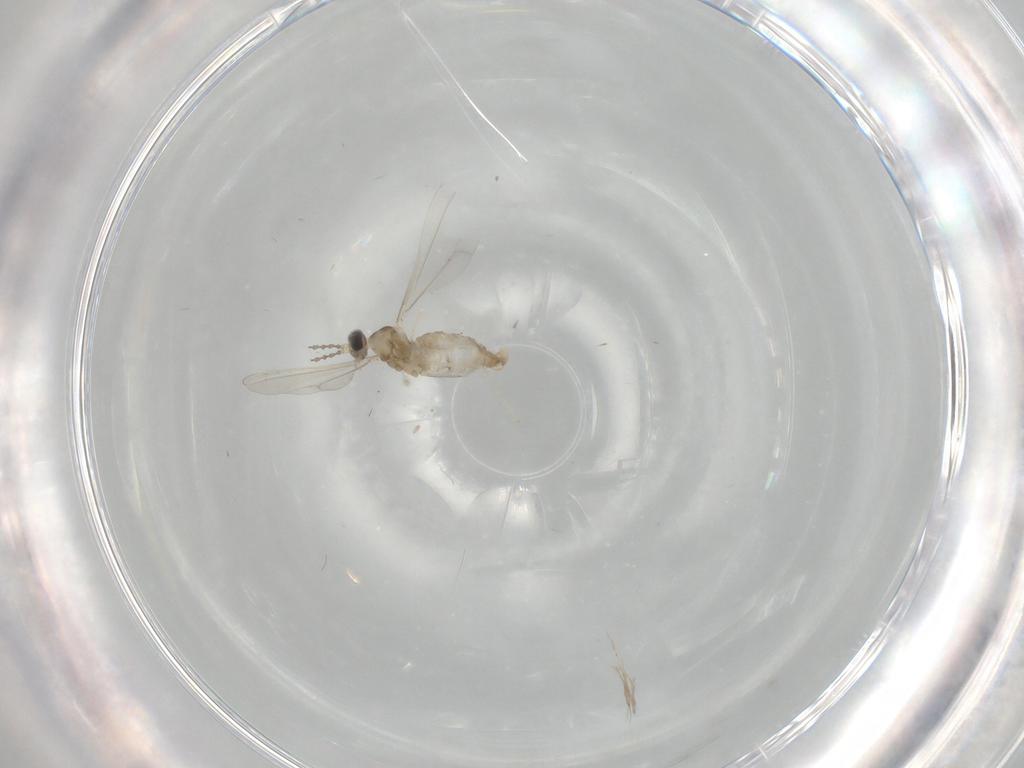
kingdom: Animalia
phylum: Arthropoda
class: Insecta
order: Diptera
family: Cecidomyiidae
